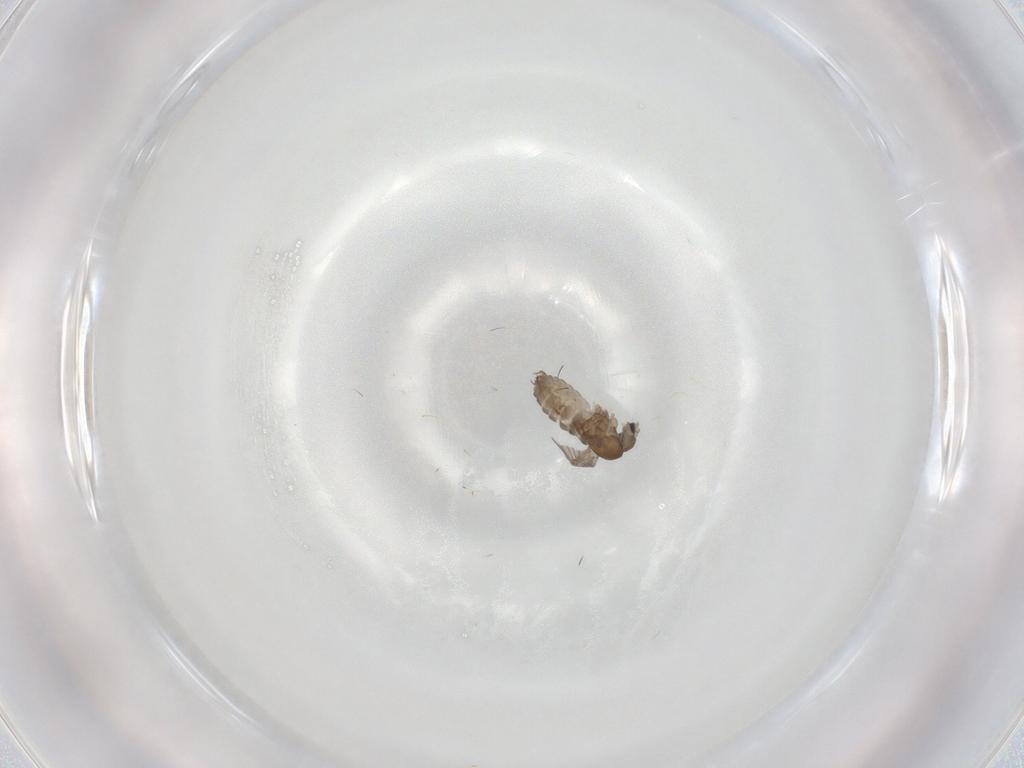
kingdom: Animalia
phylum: Arthropoda
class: Insecta
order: Diptera
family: Psychodidae
